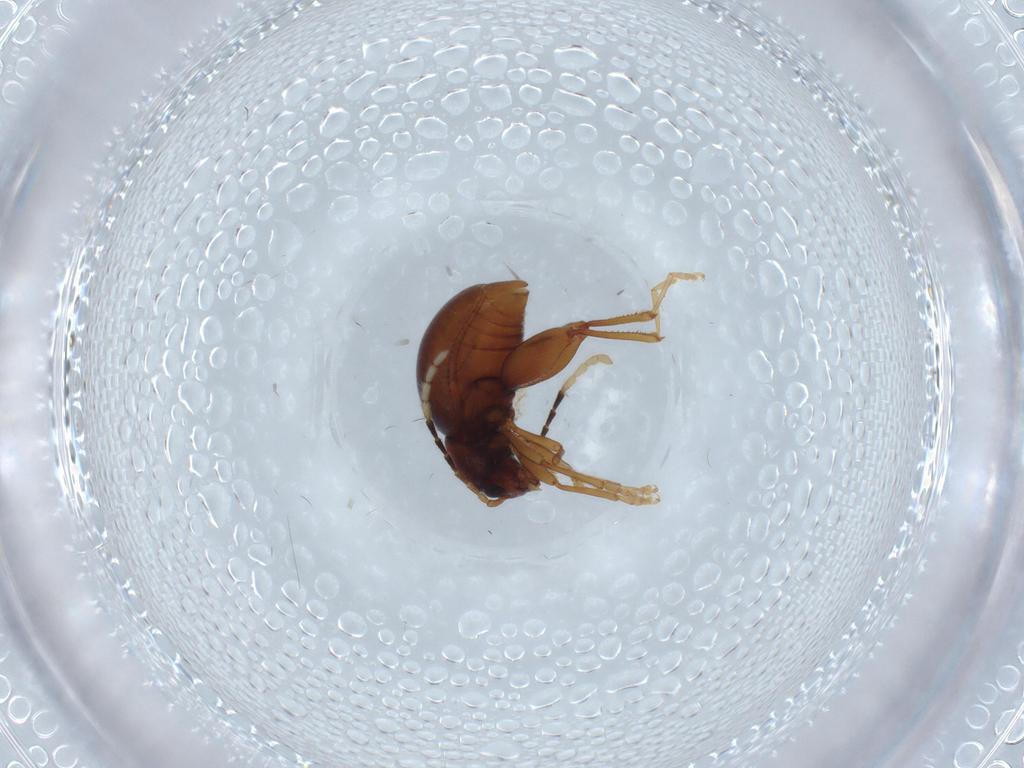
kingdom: Animalia
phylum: Arthropoda
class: Insecta
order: Coleoptera
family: Chrysomelidae
